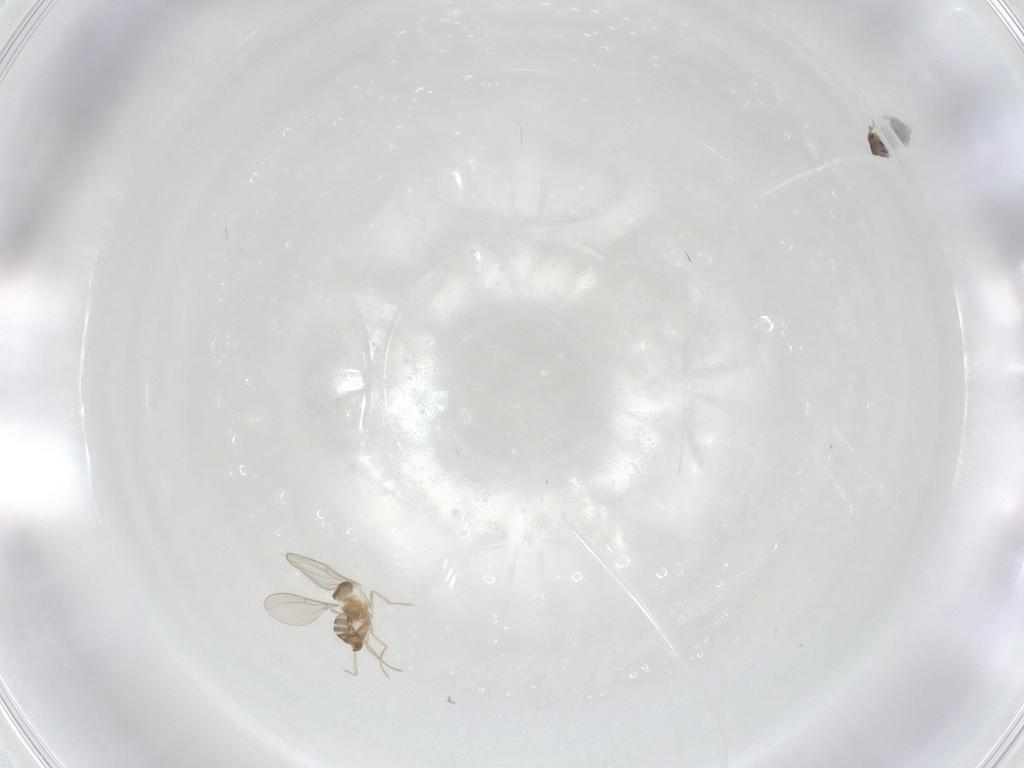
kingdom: Animalia
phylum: Arthropoda
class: Insecta
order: Diptera
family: Cecidomyiidae
